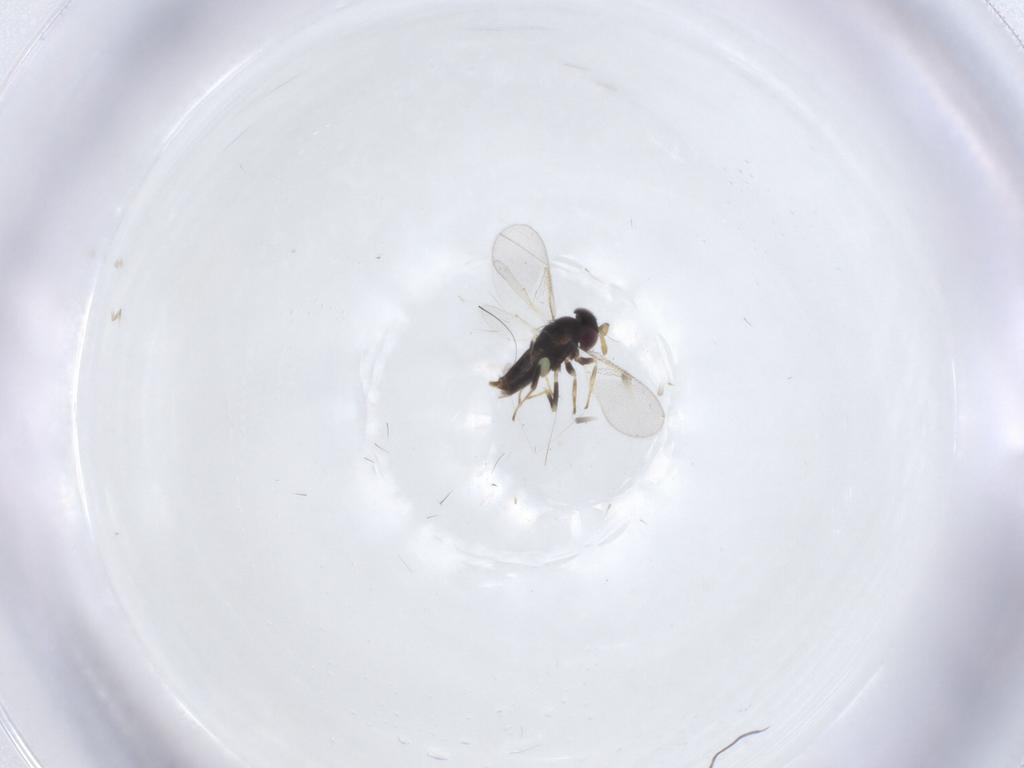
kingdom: Animalia
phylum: Arthropoda
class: Insecta
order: Hymenoptera
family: Aphelinidae
